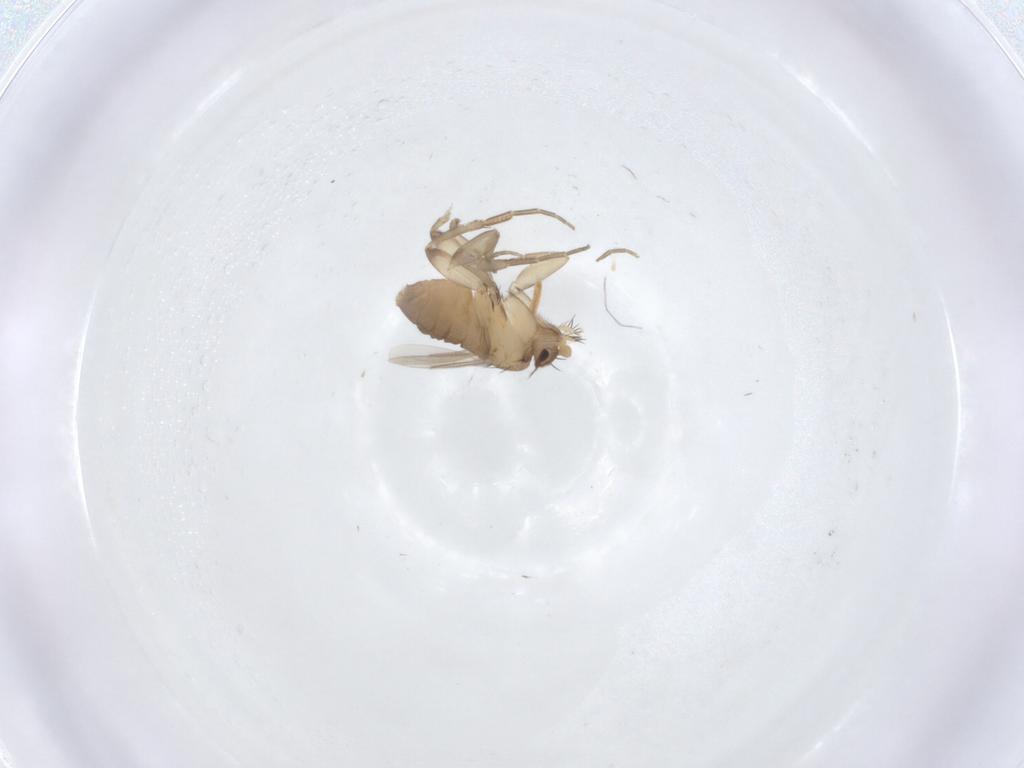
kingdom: Animalia
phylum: Arthropoda
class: Insecta
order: Diptera
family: Phoridae
